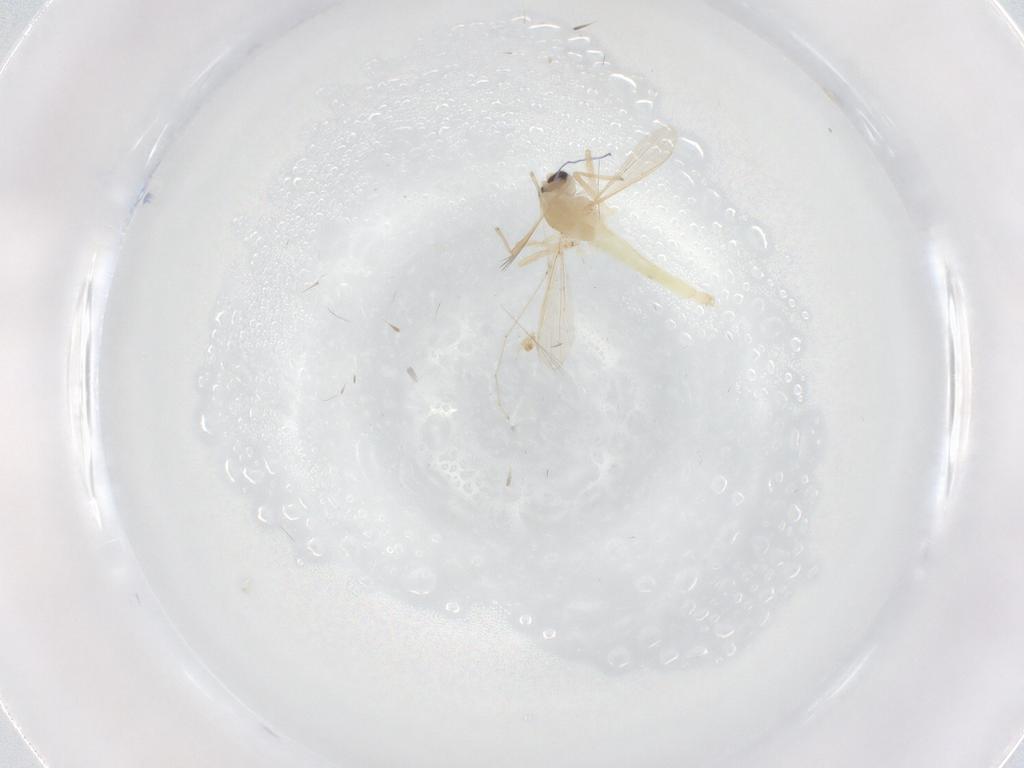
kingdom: Animalia
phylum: Arthropoda
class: Insecta
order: Diptera
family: Chironomidae
